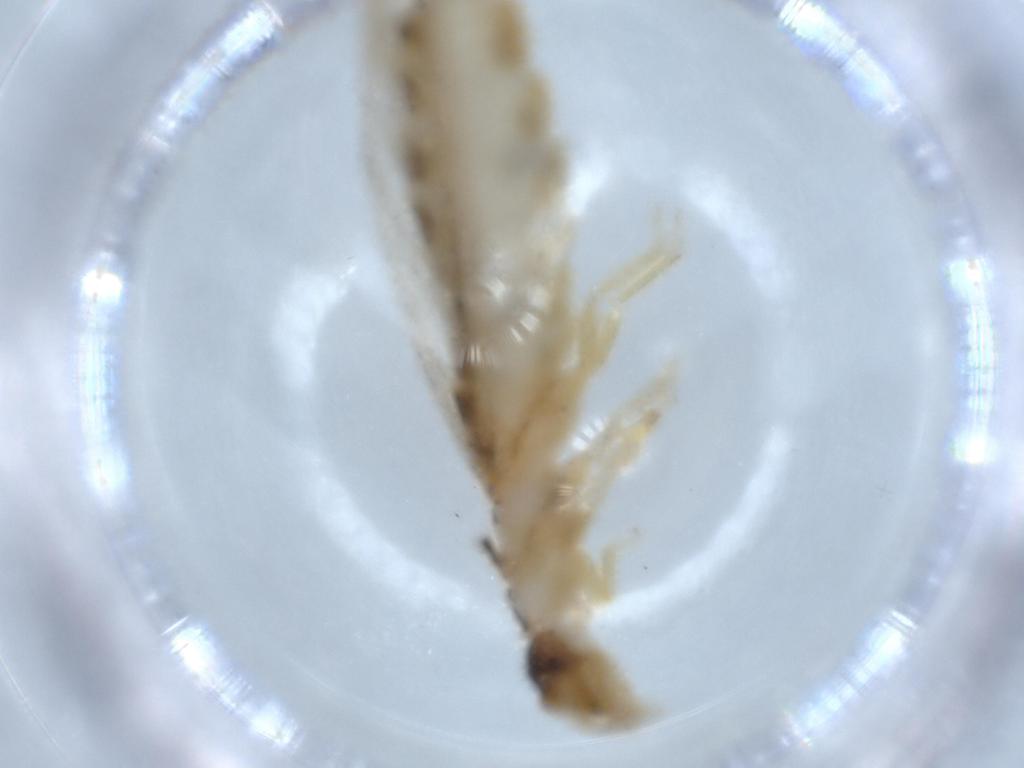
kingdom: Animalia
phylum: Arthropoda
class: Insecta
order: Blattodea
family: Termitidae
